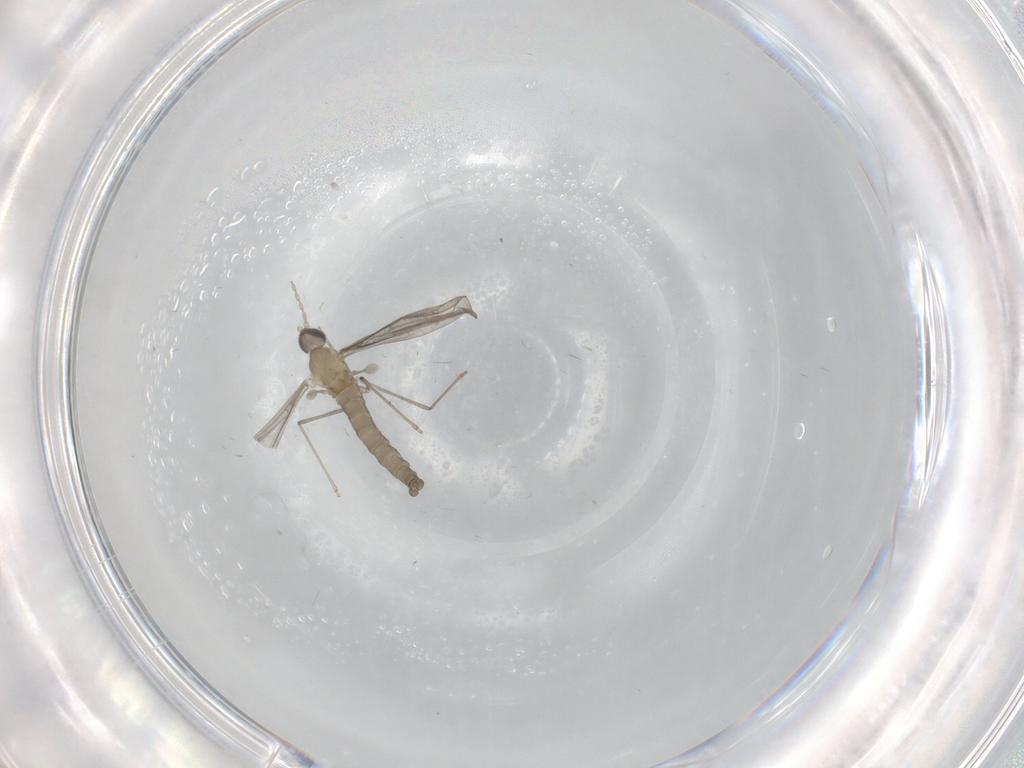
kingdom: Animalia
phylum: Arthropoda
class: Insecta
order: Diptera
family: Cecidomyiidae
